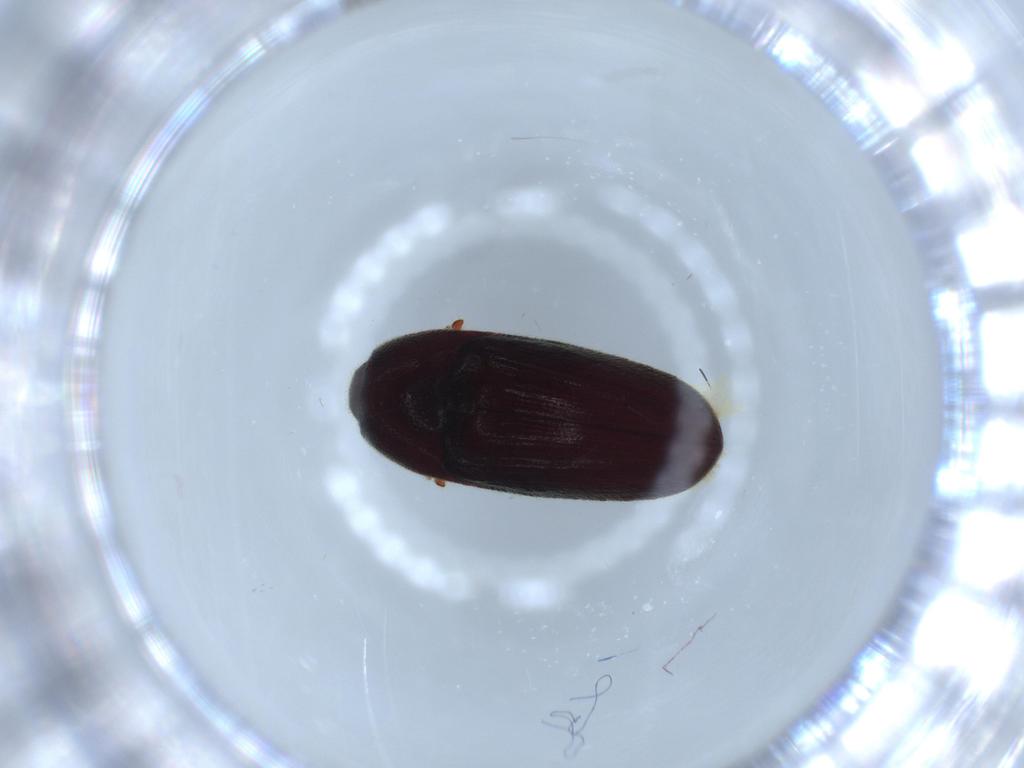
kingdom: Animalia
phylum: Arthropoda
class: Insecta
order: Coleoptera
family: Throscidae
